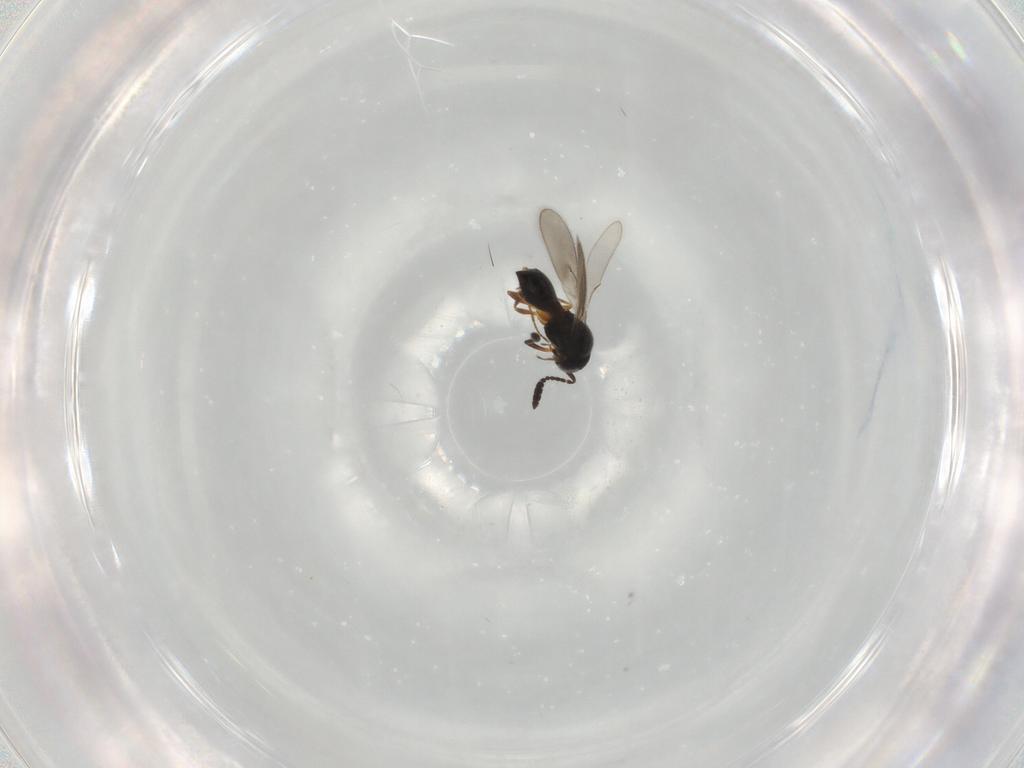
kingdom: Animalia
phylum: Arthropoda
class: Insecta
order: Hymenoptera
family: Scelionidae
